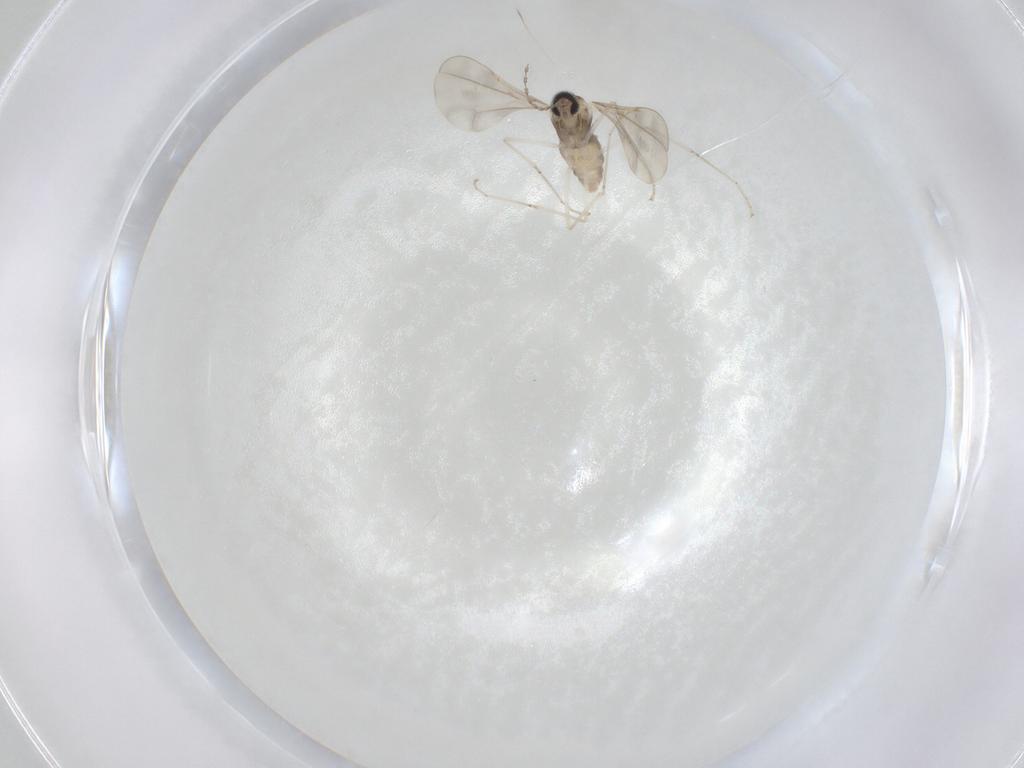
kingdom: Animalia
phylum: Arthropoda
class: Insecta
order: Diptera
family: Cecidomyiidae
